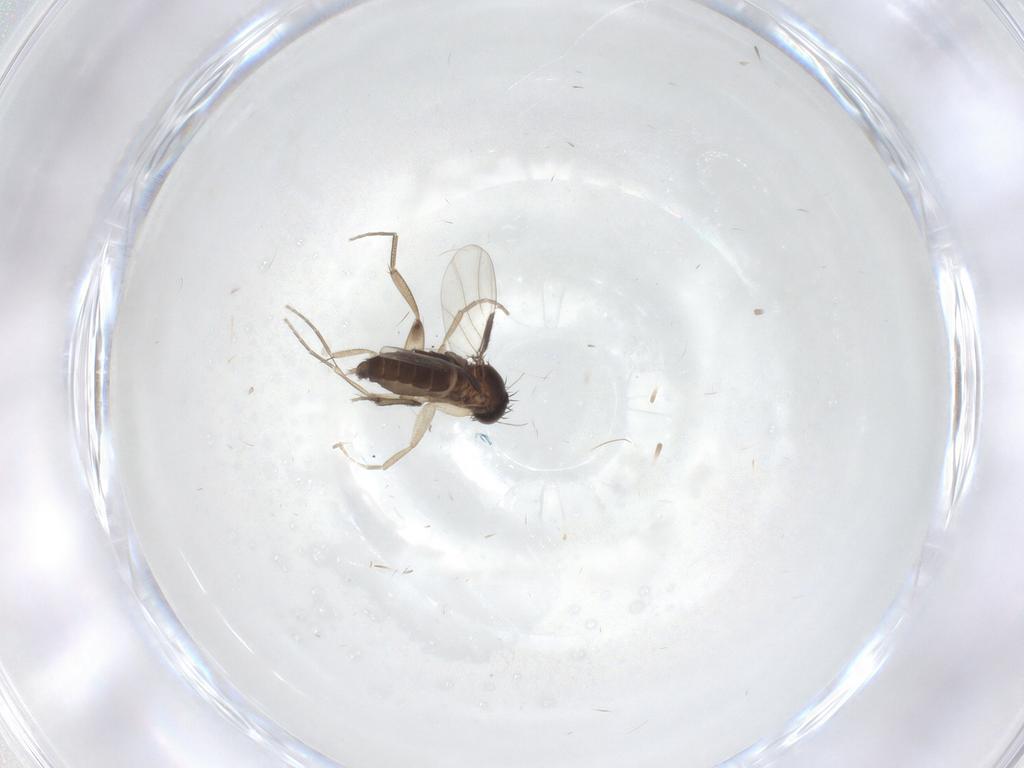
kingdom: Animalia
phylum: Arthropoda
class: Insecta
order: Diptera
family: Phoridae
